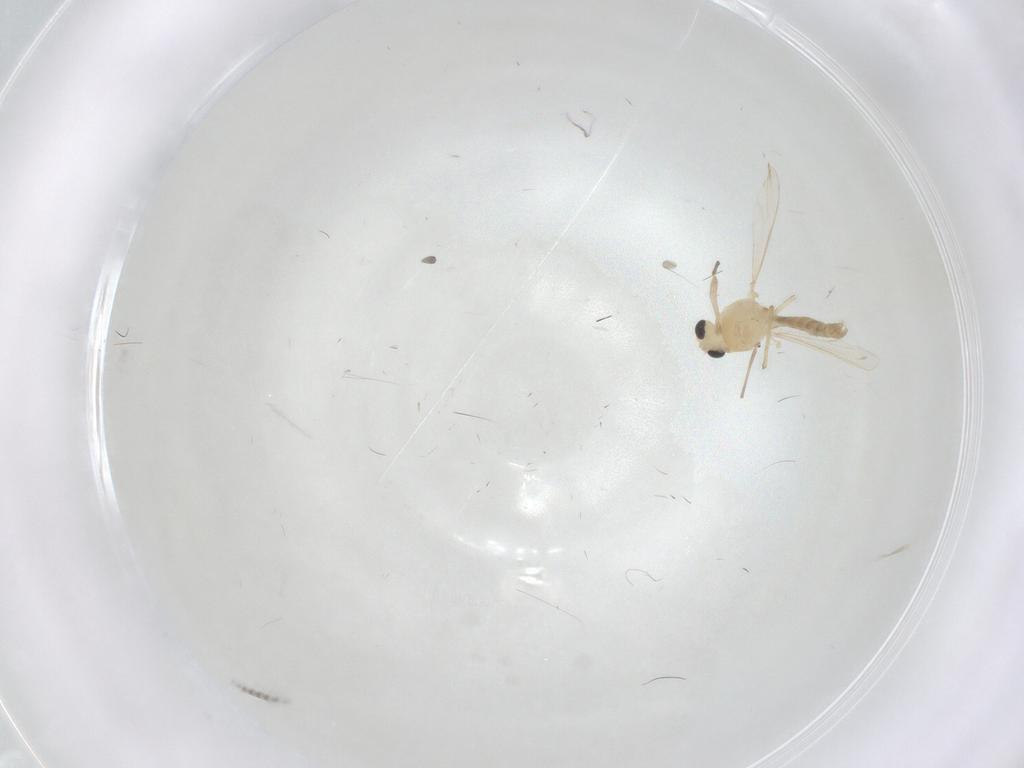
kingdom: Animalia
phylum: Arthropoda
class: Insecta
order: Diptera
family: Chironomidae
